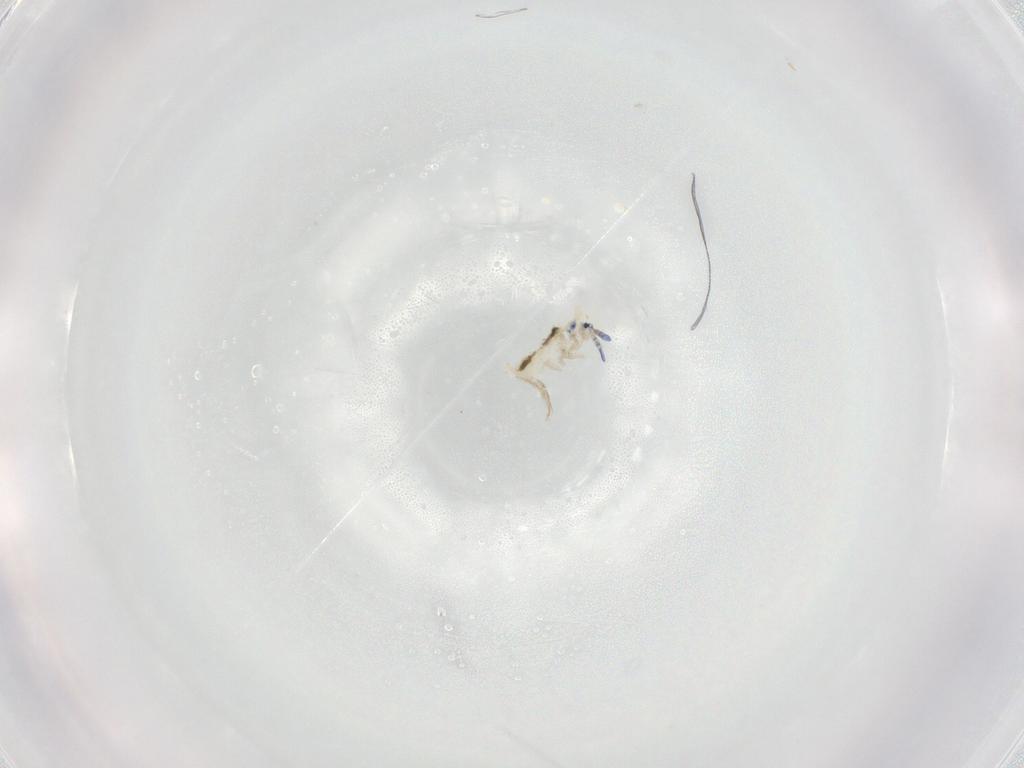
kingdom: Animalia
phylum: Arthropoda
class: Collembola
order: Entomobryomorpha
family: Entomobryidae
